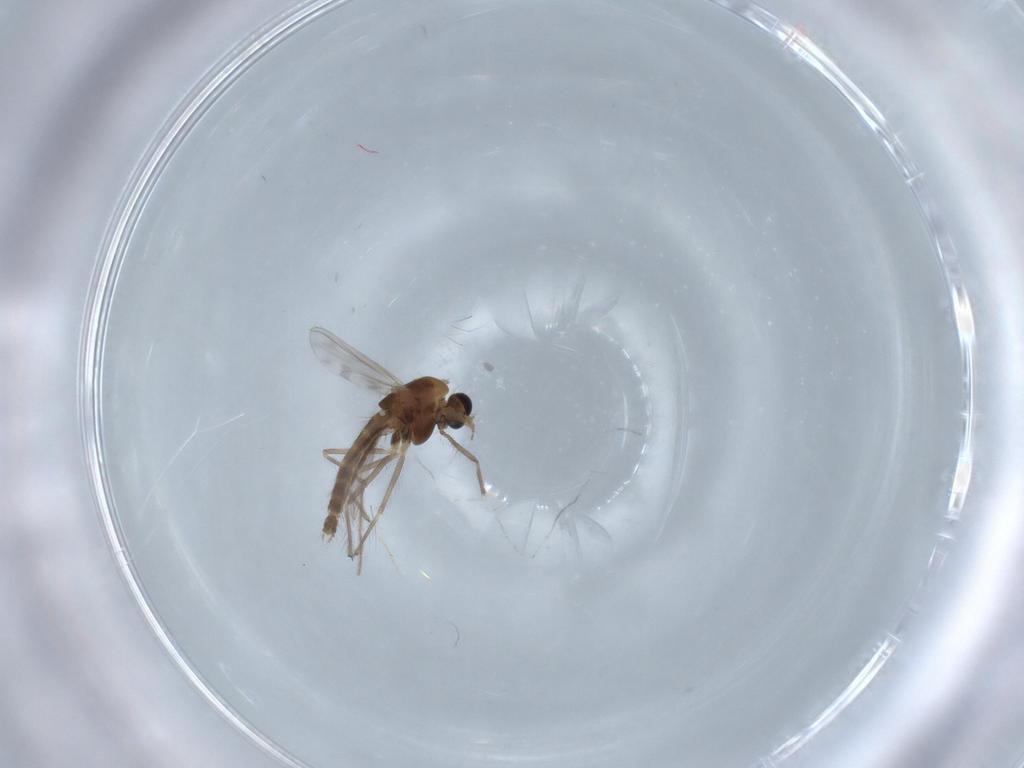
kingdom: Animalia
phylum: Arthropoda
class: Insecta
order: Diptera
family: Chironomidae
